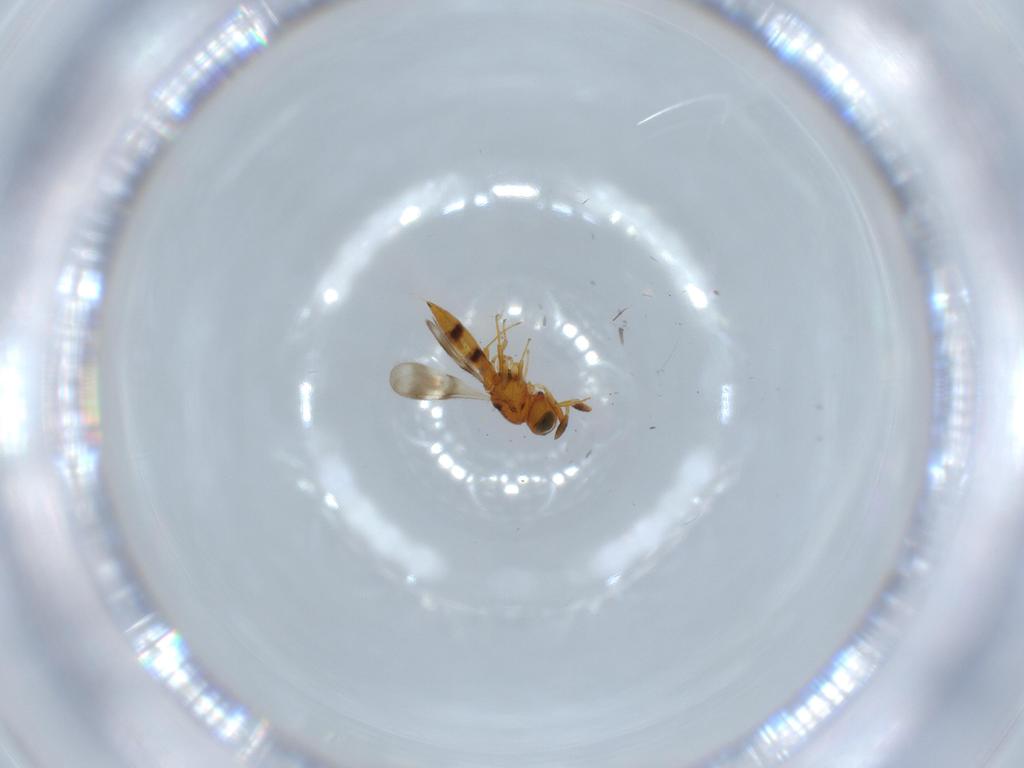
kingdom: Animalia
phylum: Arthropoda
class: Insecta
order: Hymenoptera
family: Scelionidae
